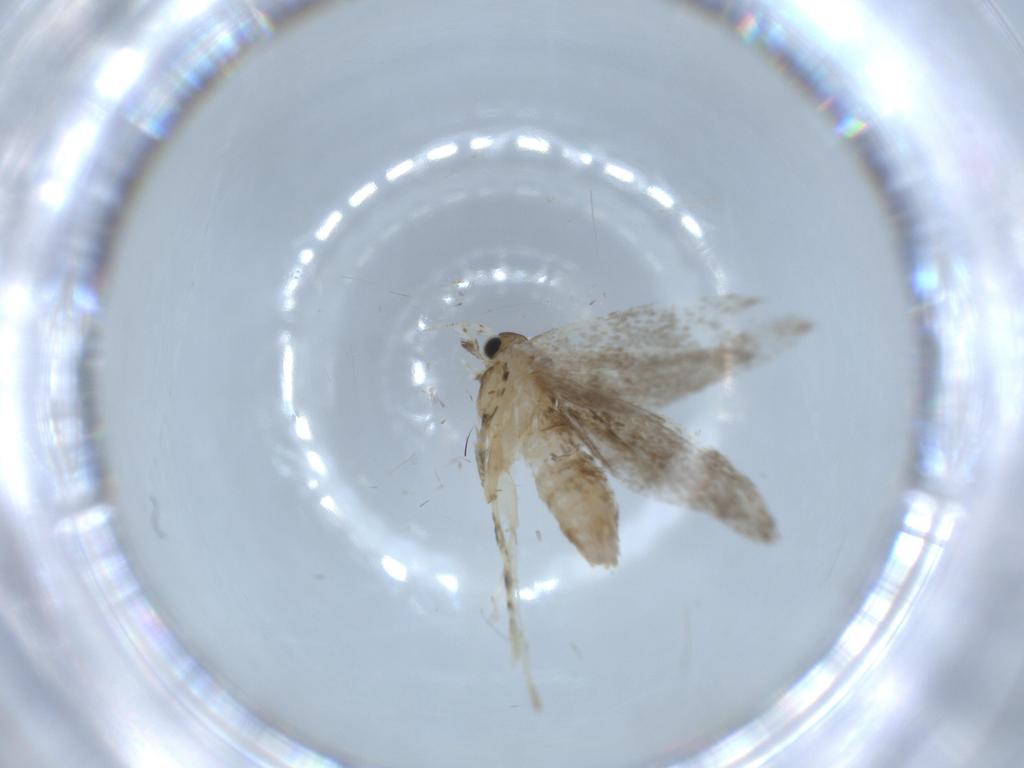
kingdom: Animalia
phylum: Arthropoda
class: Insecta
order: Lepidoptera
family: Tineidae
